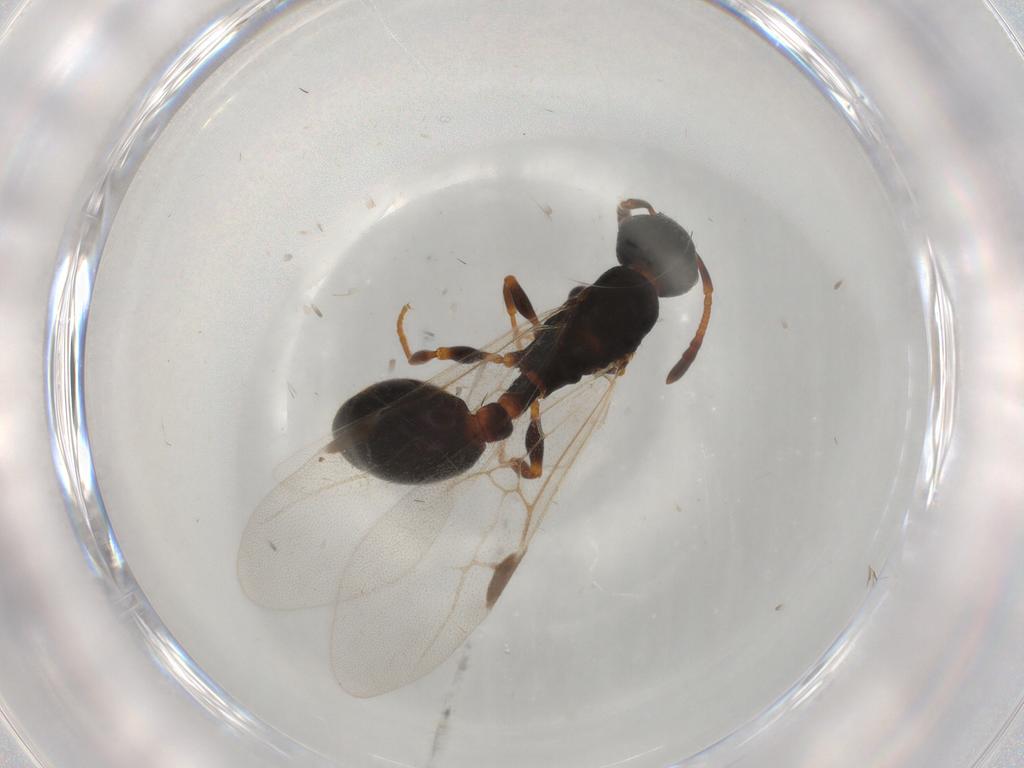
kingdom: Animalia
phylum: Arthropoda
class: Insecta
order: Hymenoptera
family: Formicidae
